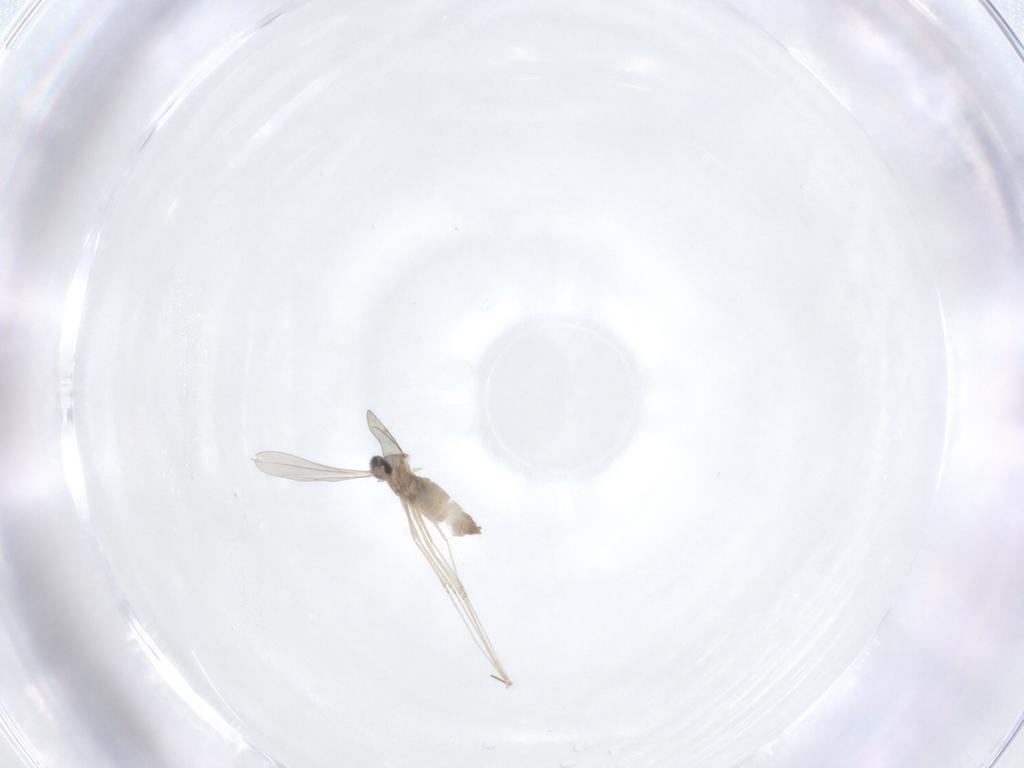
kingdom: Animalia
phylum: Arthropoda
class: Insecta
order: Diptera
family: Cecidomyiidae
